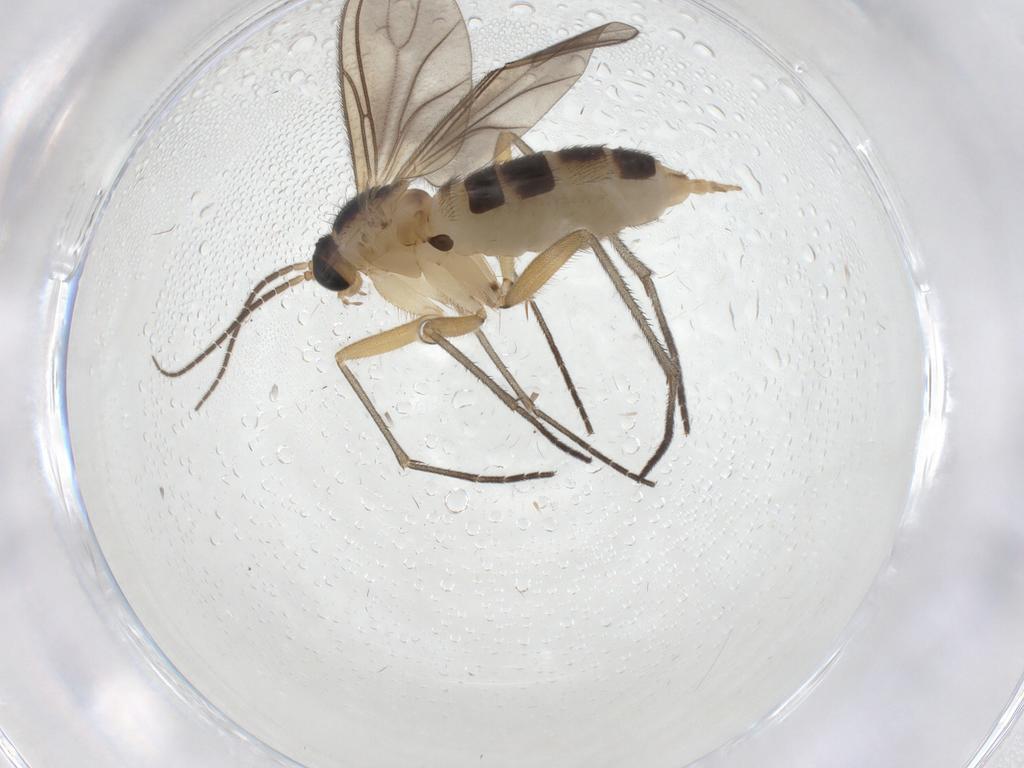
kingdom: Animalia
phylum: Arthropoda
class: Insecta
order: Diptera
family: Sciaridae
